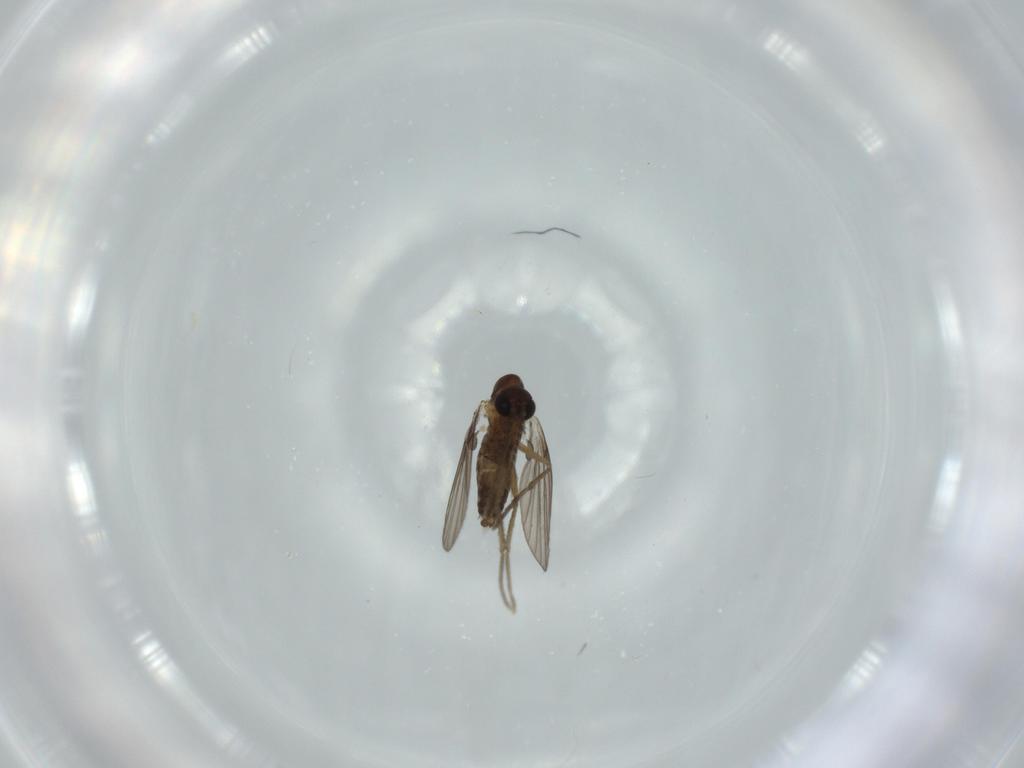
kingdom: Animalia
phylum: Arthropoda
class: Insecta
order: Diptera
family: Psychodidae
